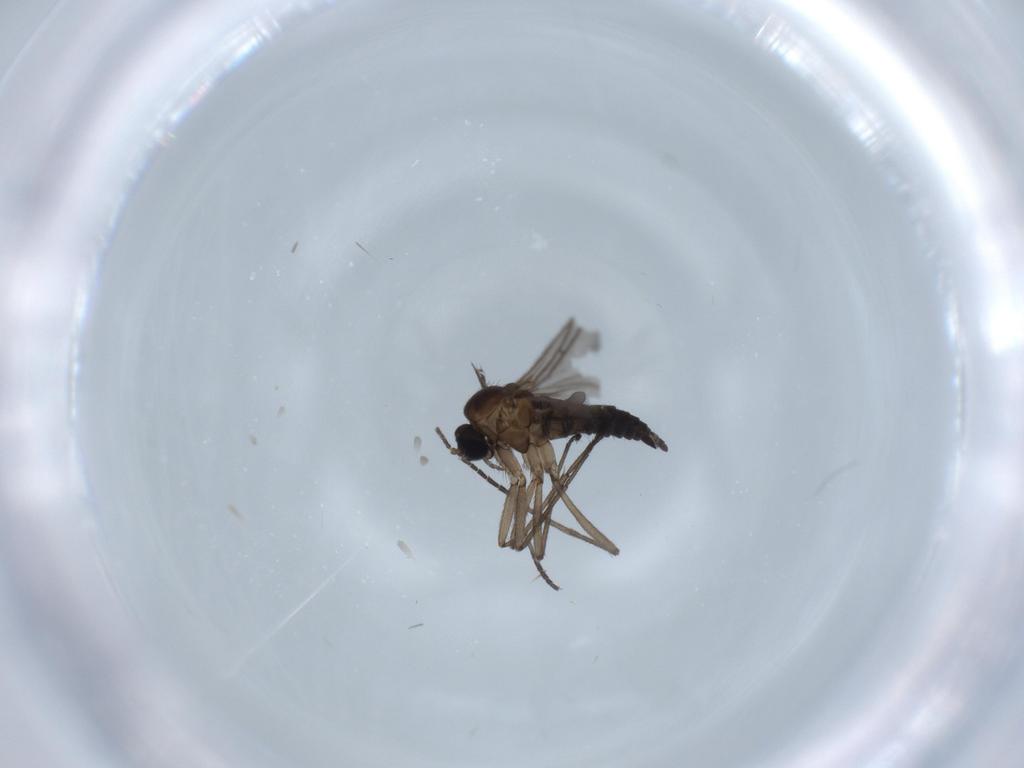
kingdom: Animalia
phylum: Arthropoda
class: Insecta
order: Diptera
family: Sciaridae
